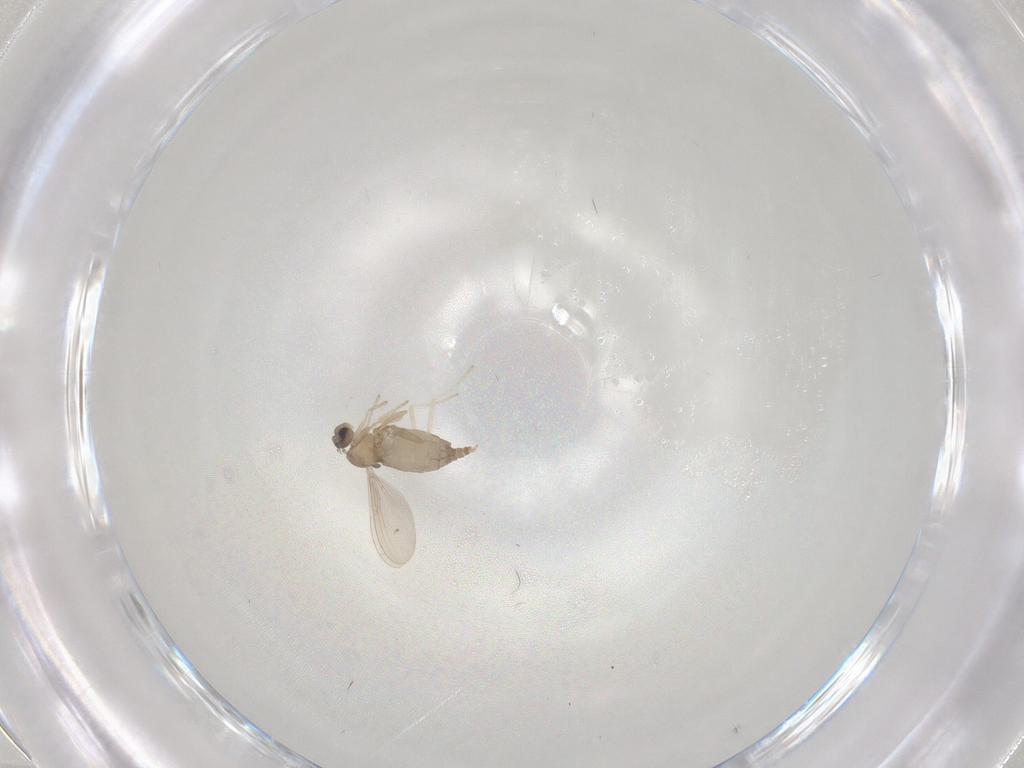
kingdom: Animalia
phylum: Arthropoda
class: Insecta
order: Diptera
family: Cecidomyiidae
